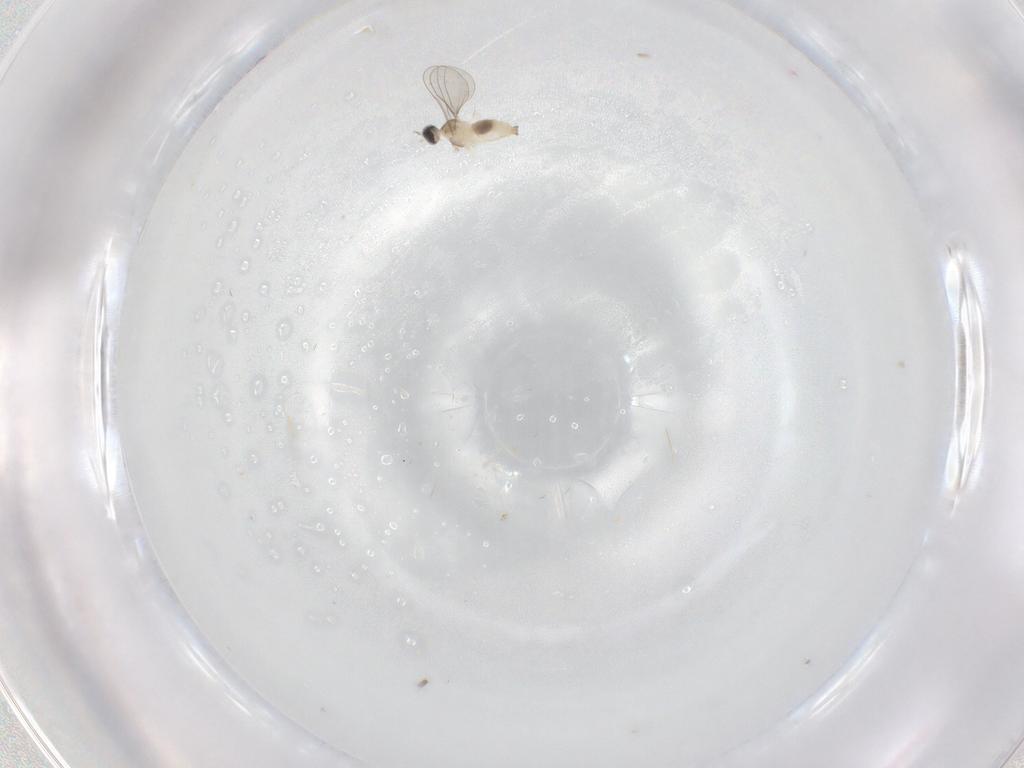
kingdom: Animalia
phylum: Arthropoda
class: Insecta
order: Diptera
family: Cecidomyiidae
